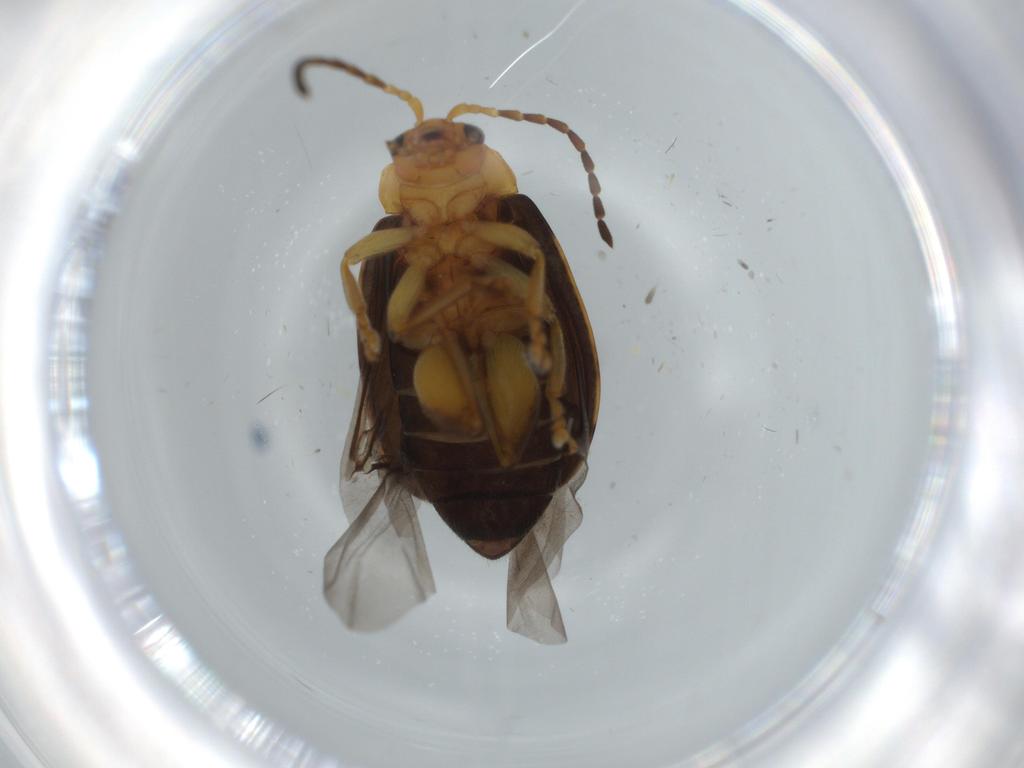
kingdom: Animalia
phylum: Arthropoda
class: Insecta
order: Coleoptera
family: Chrysomelidae
